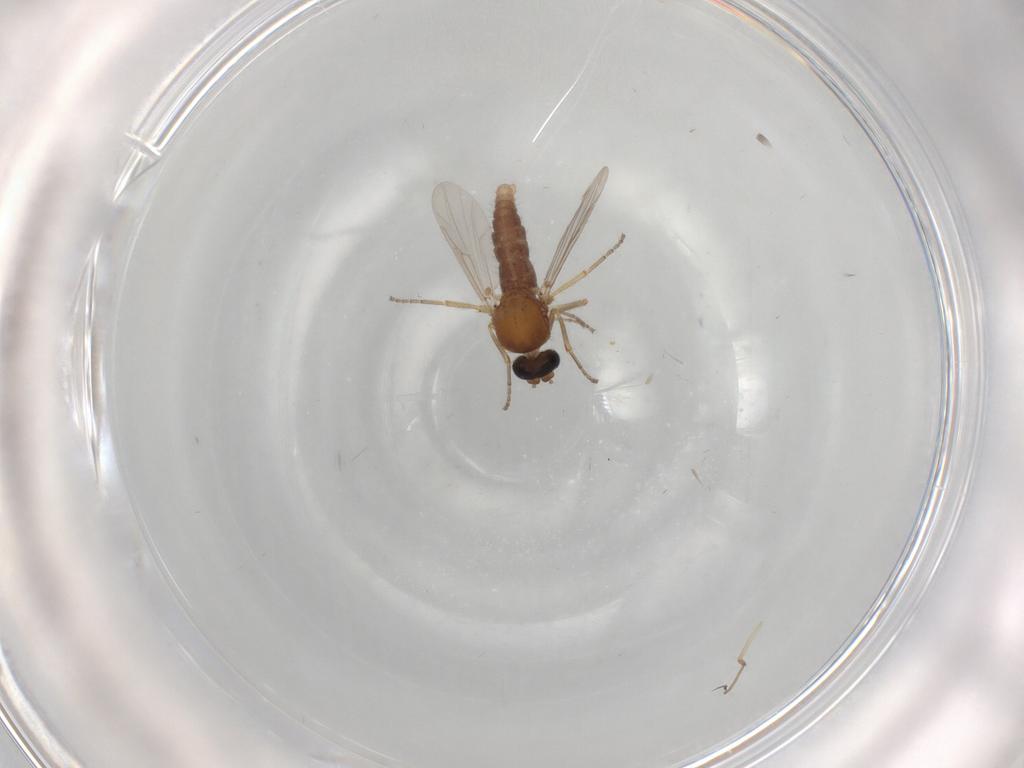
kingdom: Animalia
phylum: Arthropoda
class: Insecta
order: Diptera
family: Ceratopogonidae
